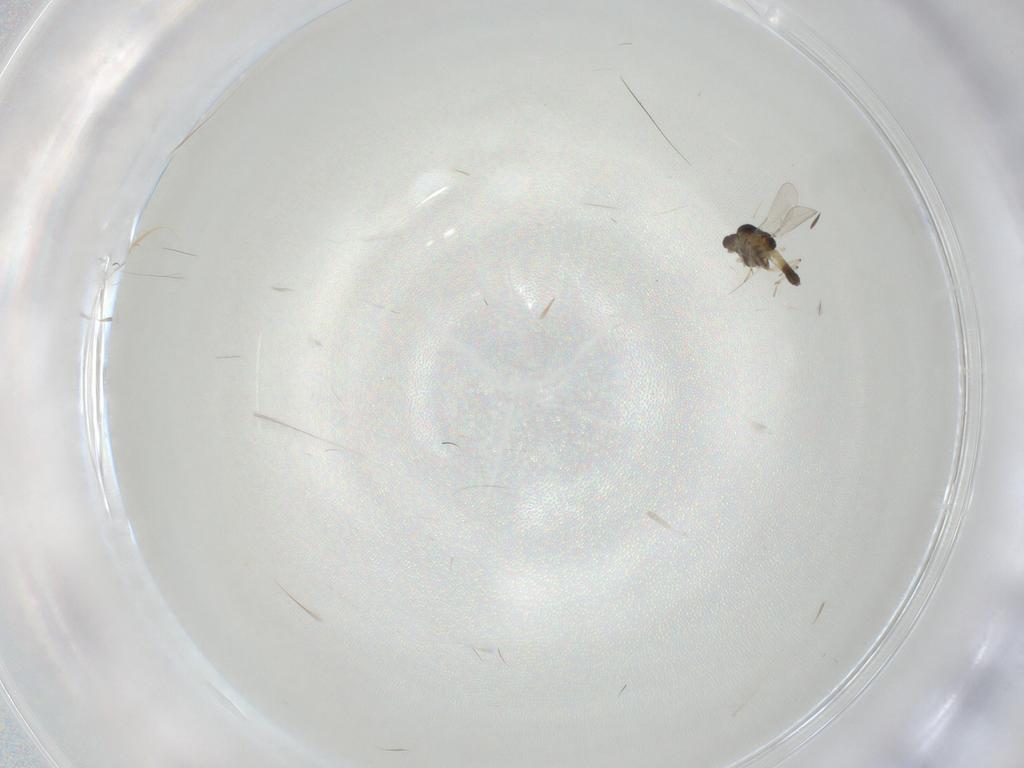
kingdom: Animalia
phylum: Arthropoda
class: Insecta
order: Diptera
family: Chironomidae
